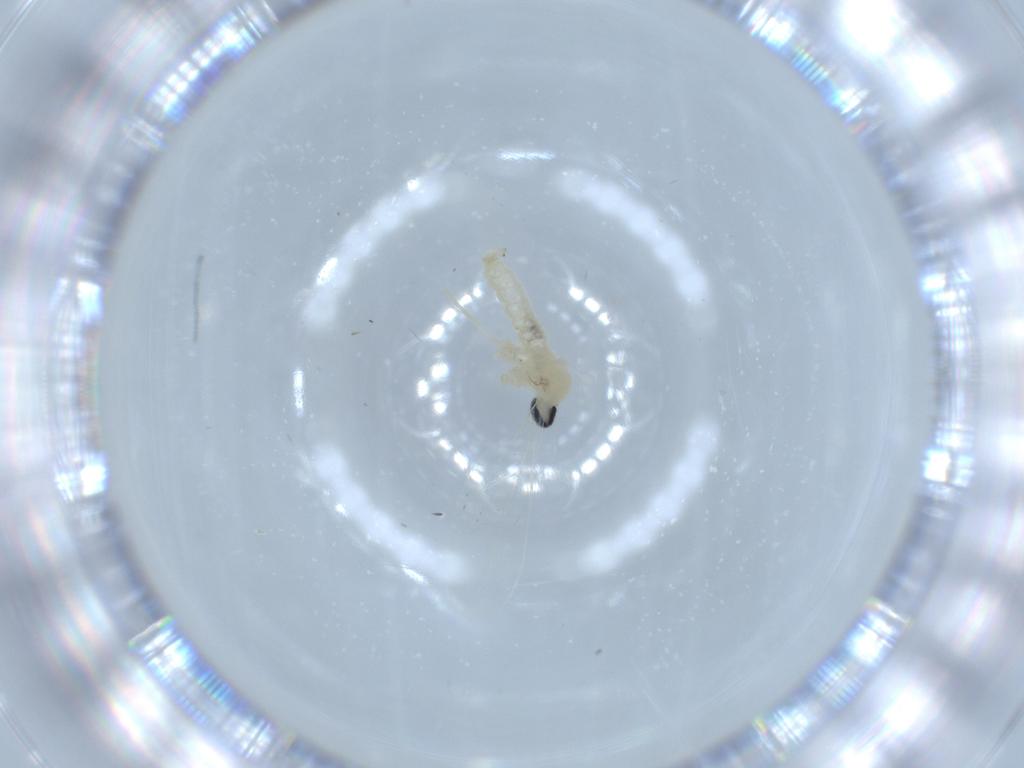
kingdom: Animalia
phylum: Arthropoda
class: Insecta
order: Diptera
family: Cecidomyiidae
